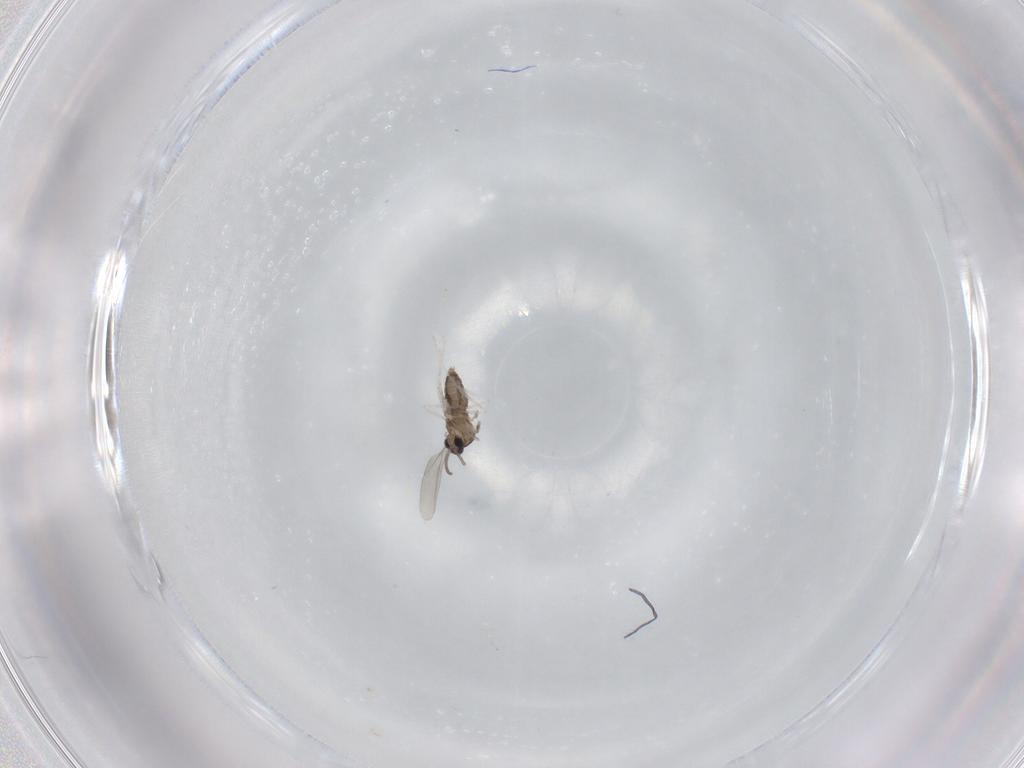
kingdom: Animalia
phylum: Arthropoda
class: Insecta
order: Diptera
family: Cecidomyiidae
